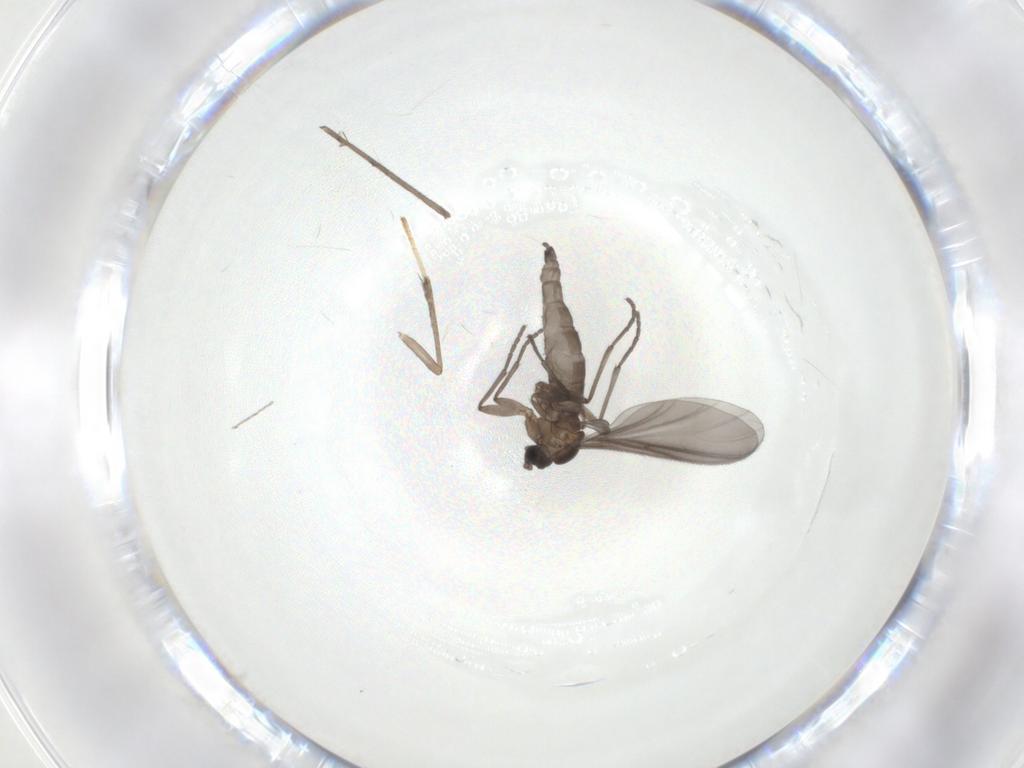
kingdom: Animalia
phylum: Arthropoda
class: Insecta
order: Diptera
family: Sciaridae
